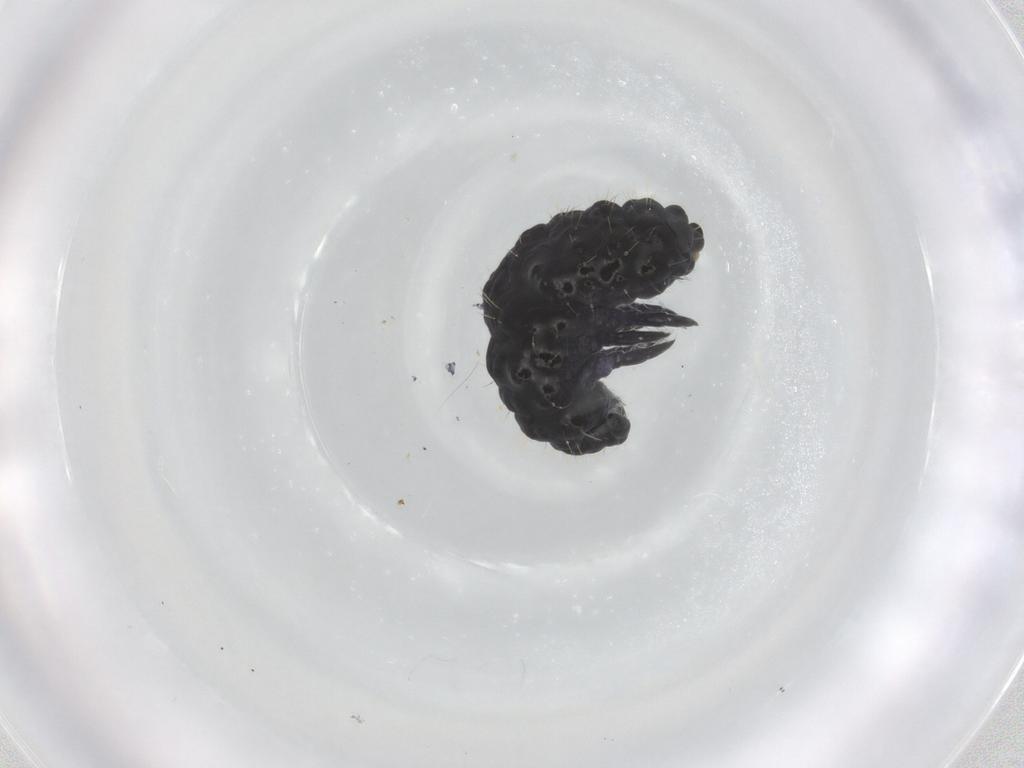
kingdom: Animalia
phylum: Arthropoda
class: Collembola
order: Poduromorpha
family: Neanuridae
